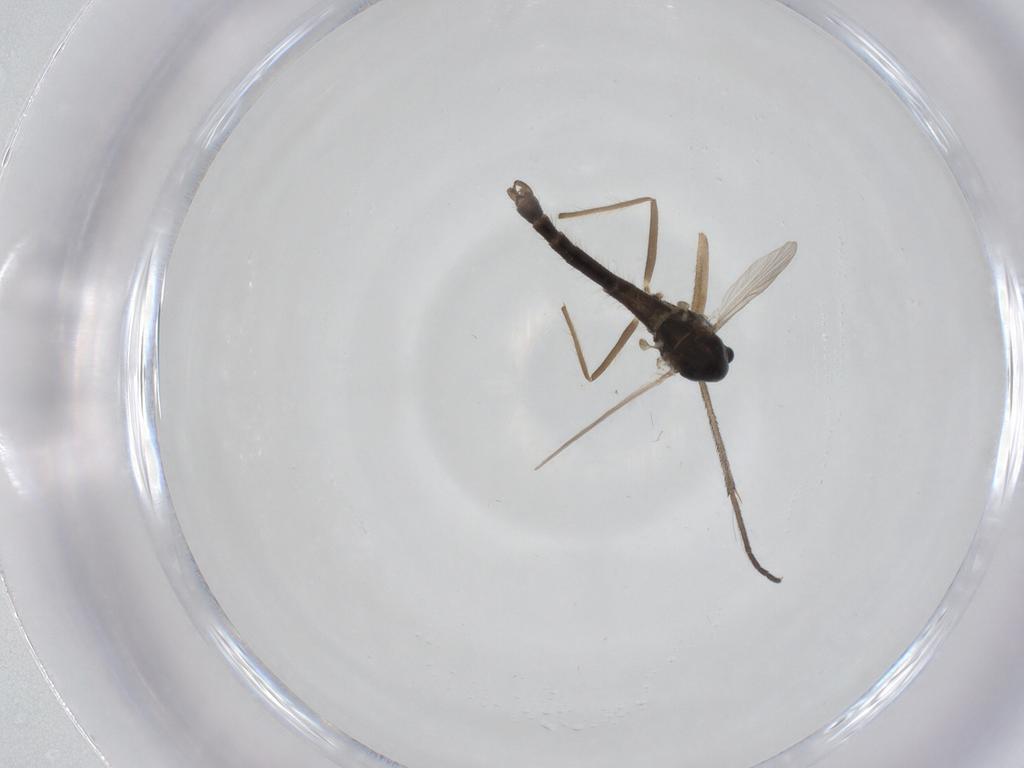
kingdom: Animalia
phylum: Arthropoda
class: Insecta
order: Diptera
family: Chironomidae
